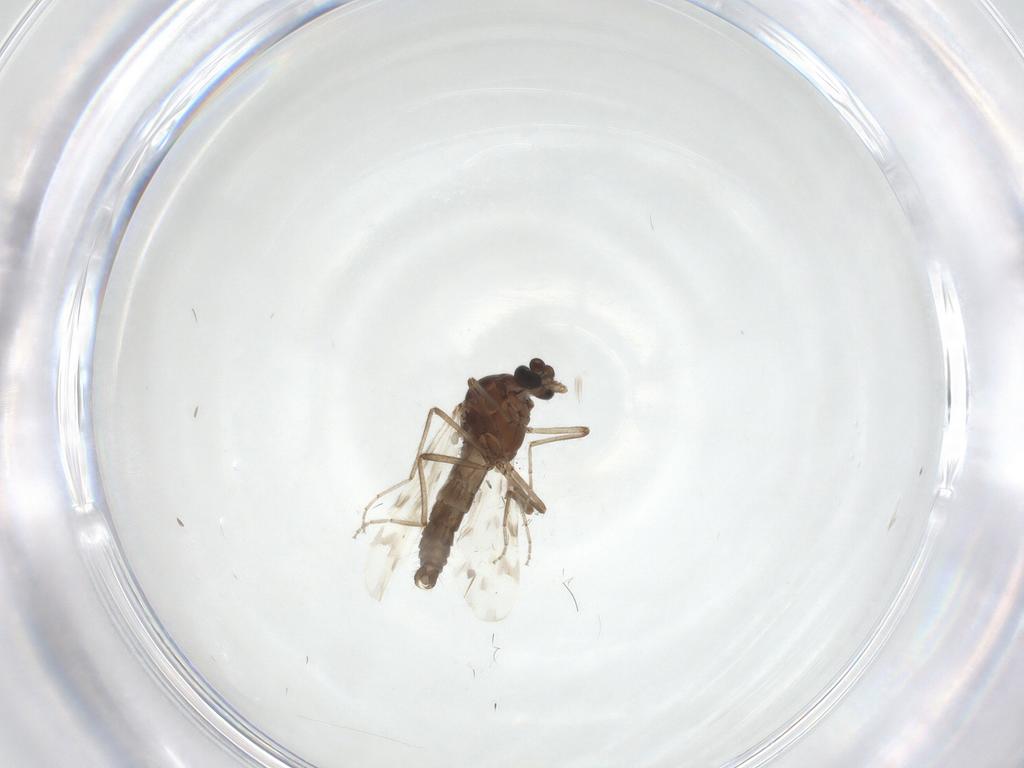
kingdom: Animalia
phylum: Arthropoda
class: Insecta
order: Diptera
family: Ceratopogonidae
